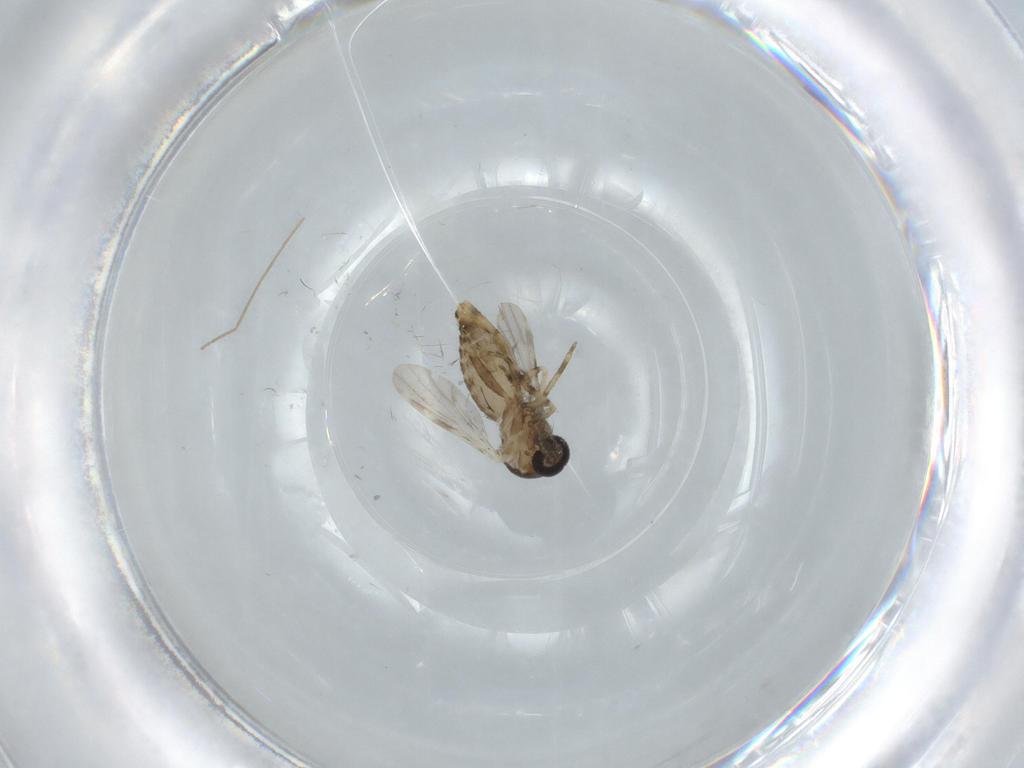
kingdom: Animalia
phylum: Arthropoda
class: Insecta
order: Diptera
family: Ceratopogonidae
